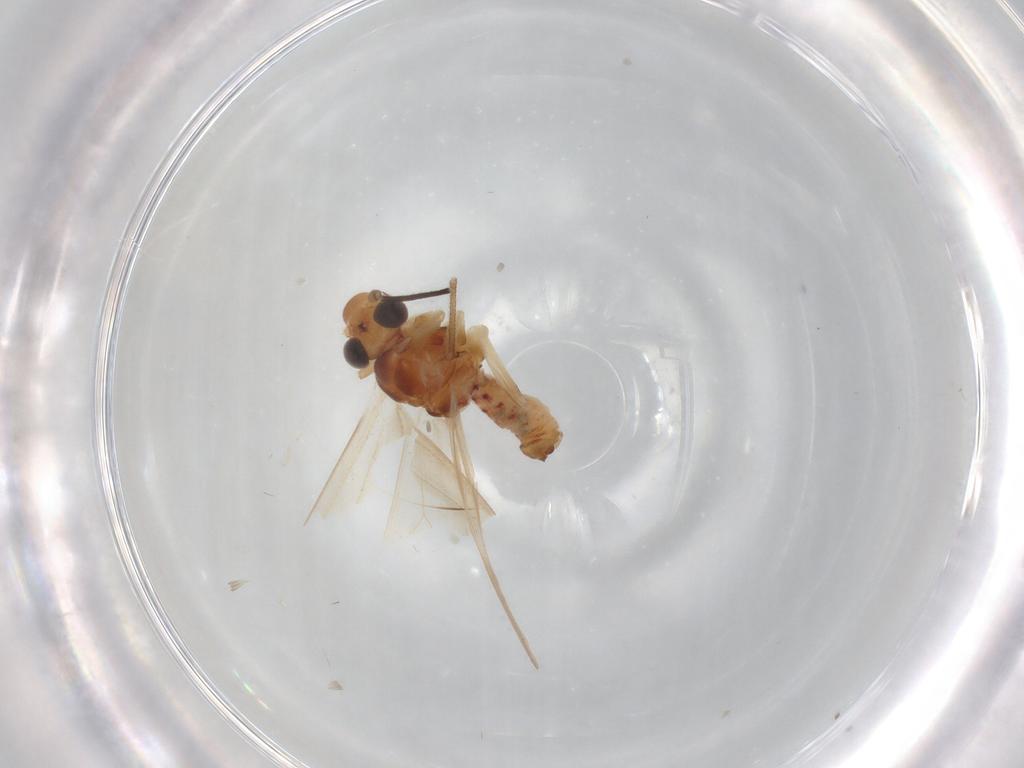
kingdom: Animalia
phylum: Arthropoda
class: Insecta
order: Psocodea
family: Caeciliusidae
